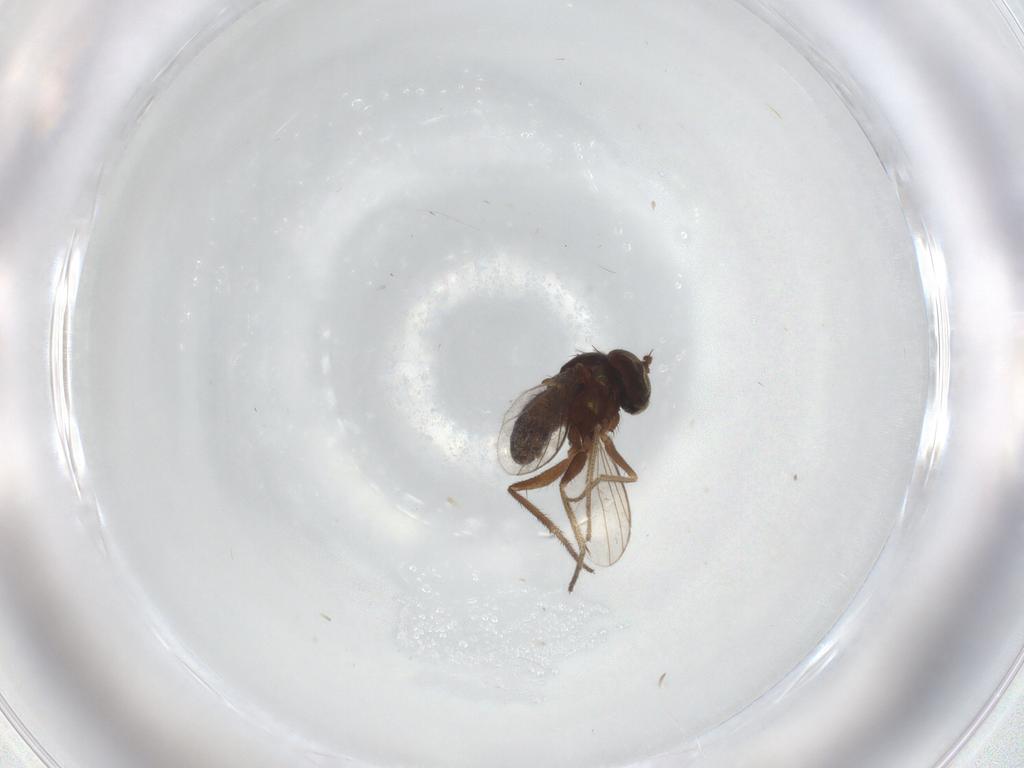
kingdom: Animalia
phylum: Arthropoda
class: Insecta
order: Diptera
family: Dolichopodidae
